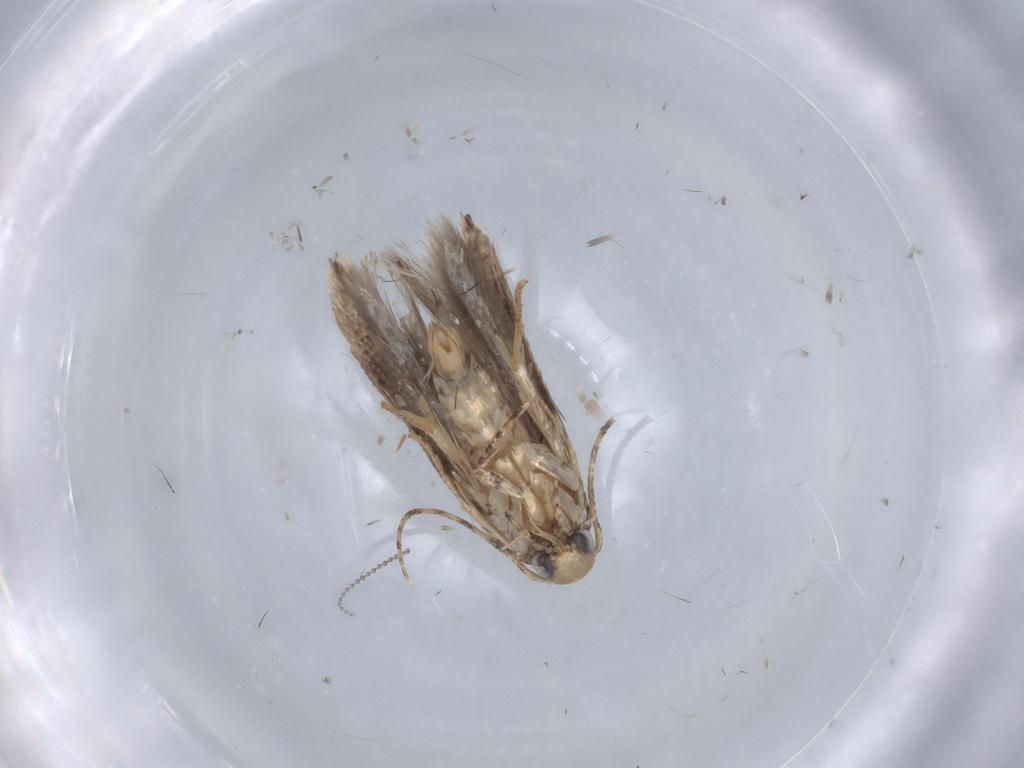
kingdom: Animalia
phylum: Arthropoda
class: Insecta
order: Lepidoptera
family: Gelechiidae
